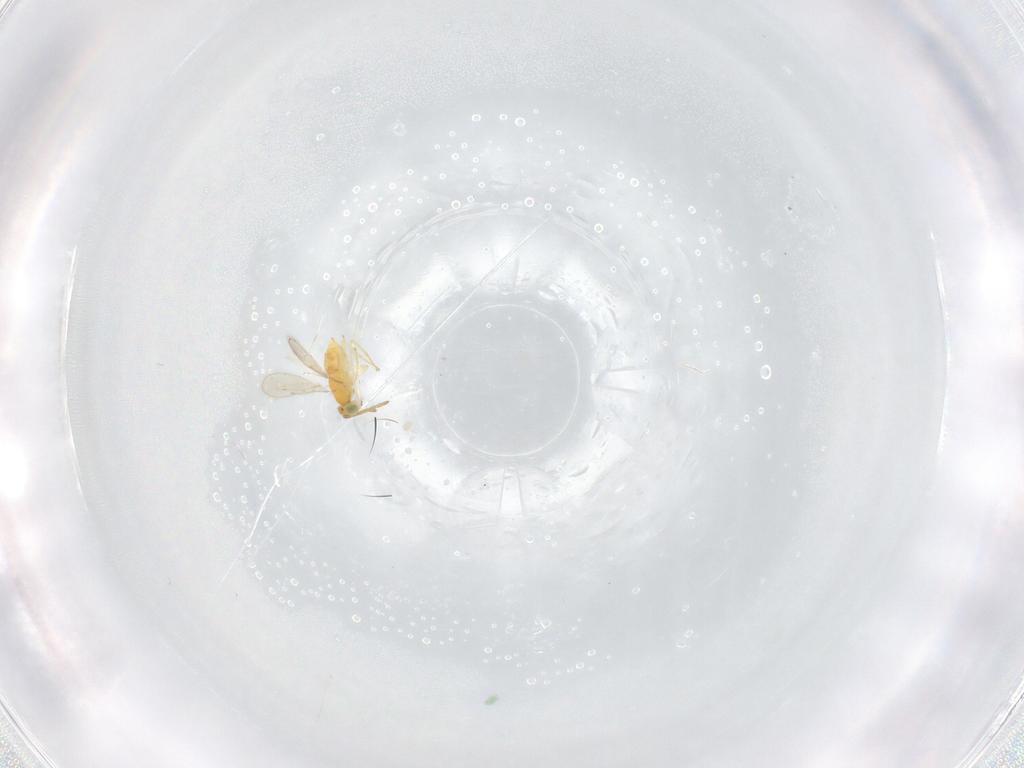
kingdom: Animalia
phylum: Arthropoda
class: Insecta
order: Hymenoptera
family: Aphelinidae
